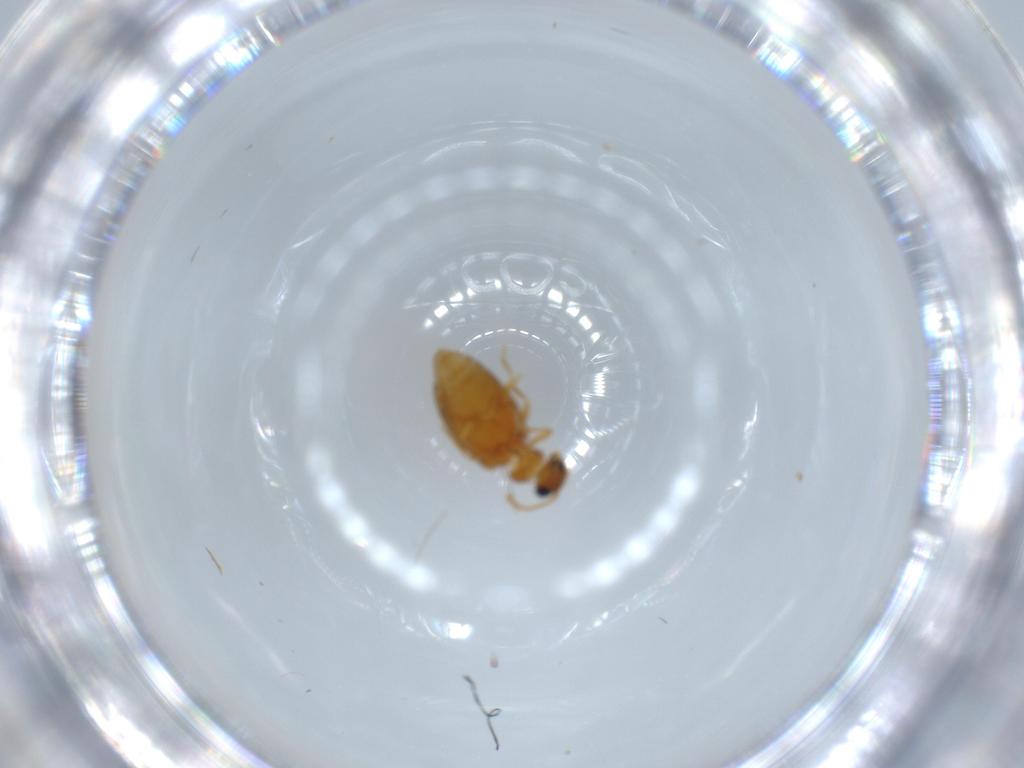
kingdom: Animalia
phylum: Arthropoda
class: Insecta
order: Coleoptera
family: Aderidae
